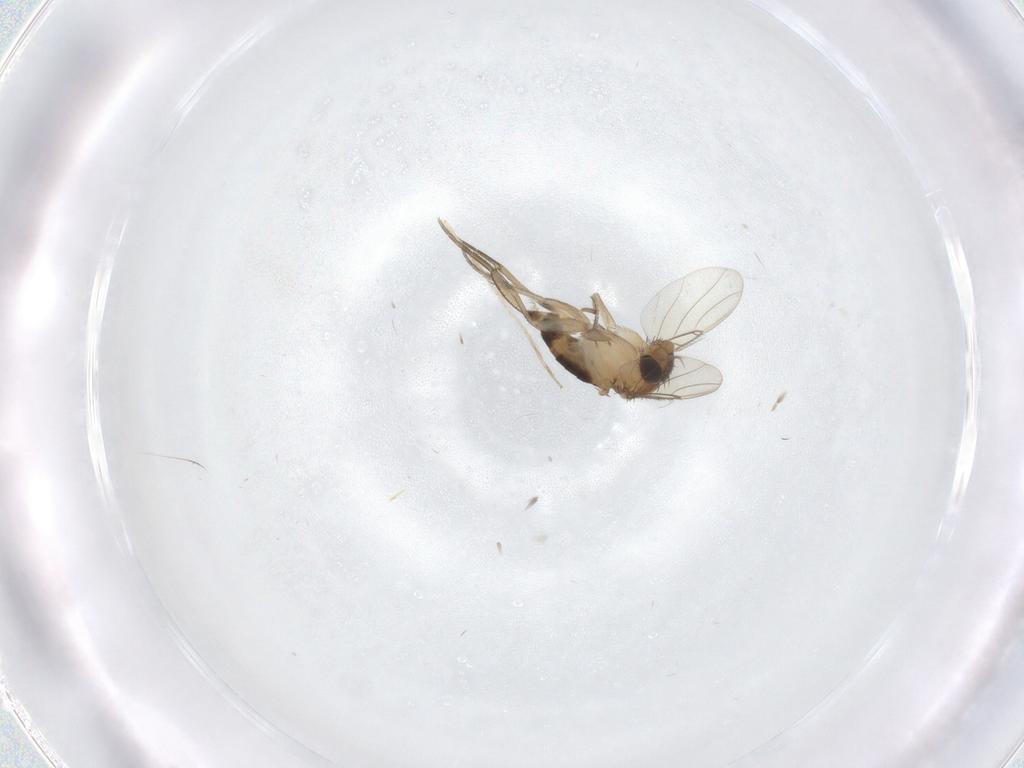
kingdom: Animalia
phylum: Arthropoda
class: Insecta
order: Diptera
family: Phoridae
